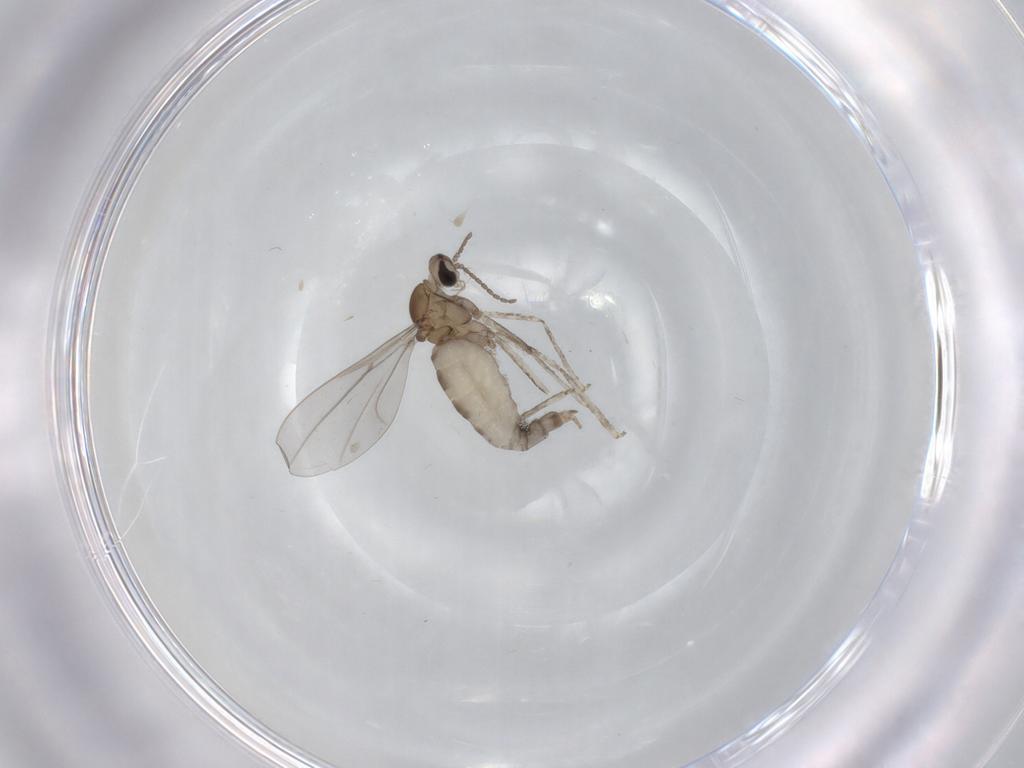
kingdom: Animalia
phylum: Arthropoda
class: Insecta
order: Diptera
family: Cecidomyiidae
